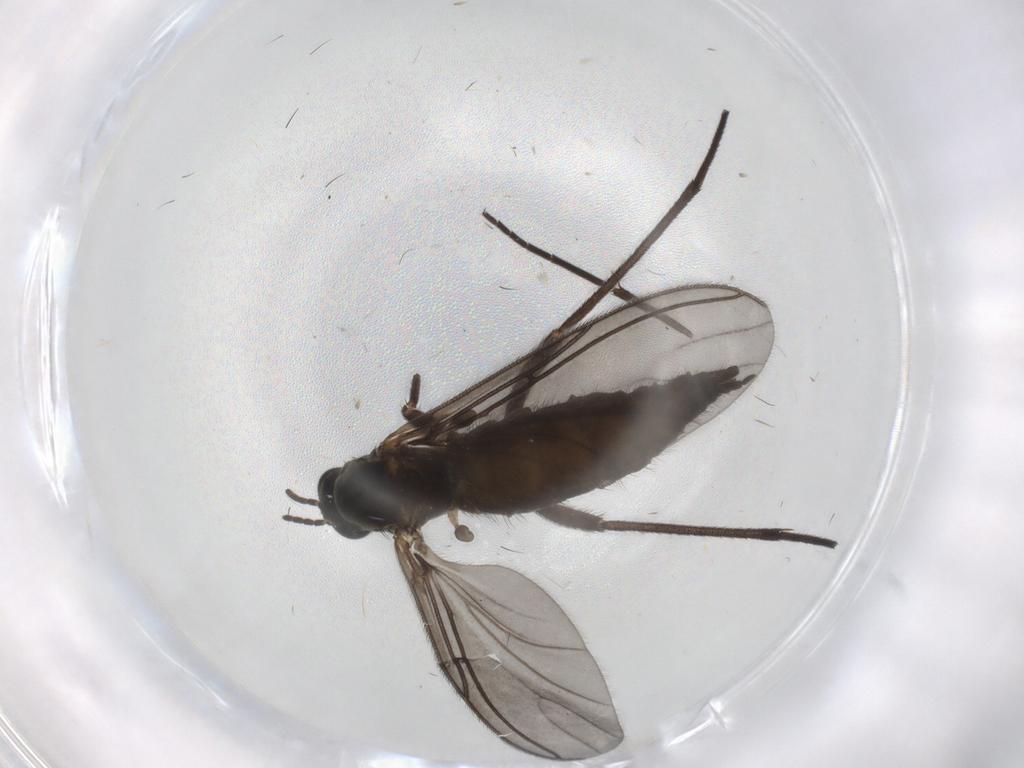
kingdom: Animalia
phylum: Arthropoda
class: Insecta
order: Diptera
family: Sciaridae
